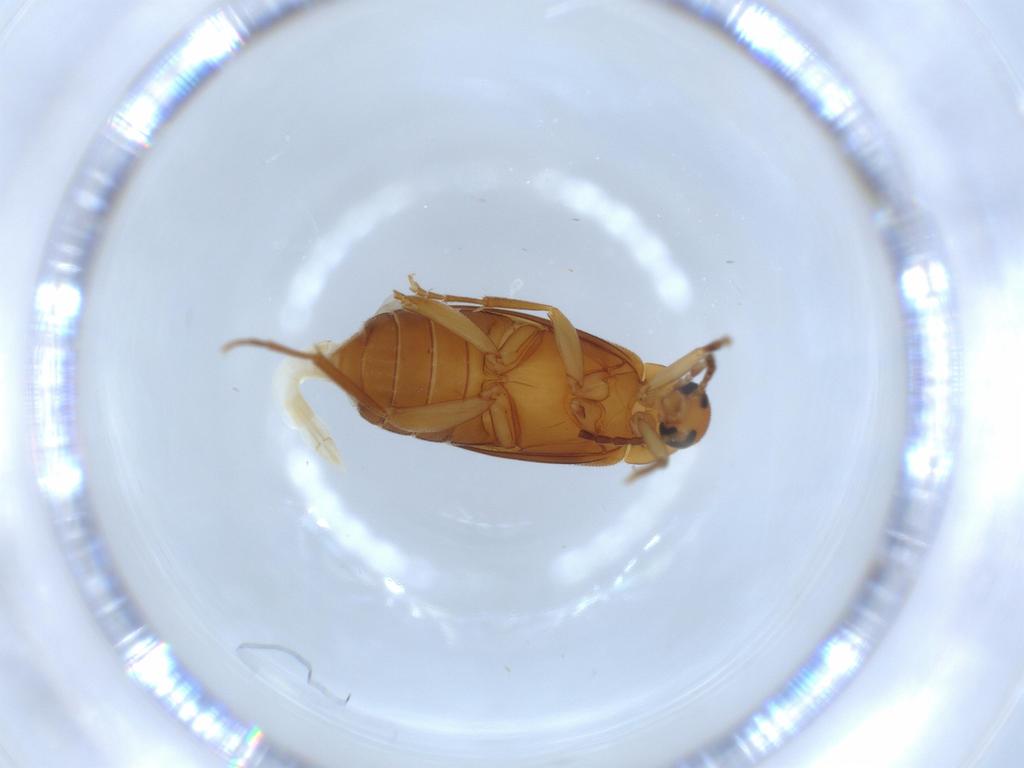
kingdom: Animalia
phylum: Arthropoda
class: Insecta
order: Coleoptera
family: Scraptiidae
